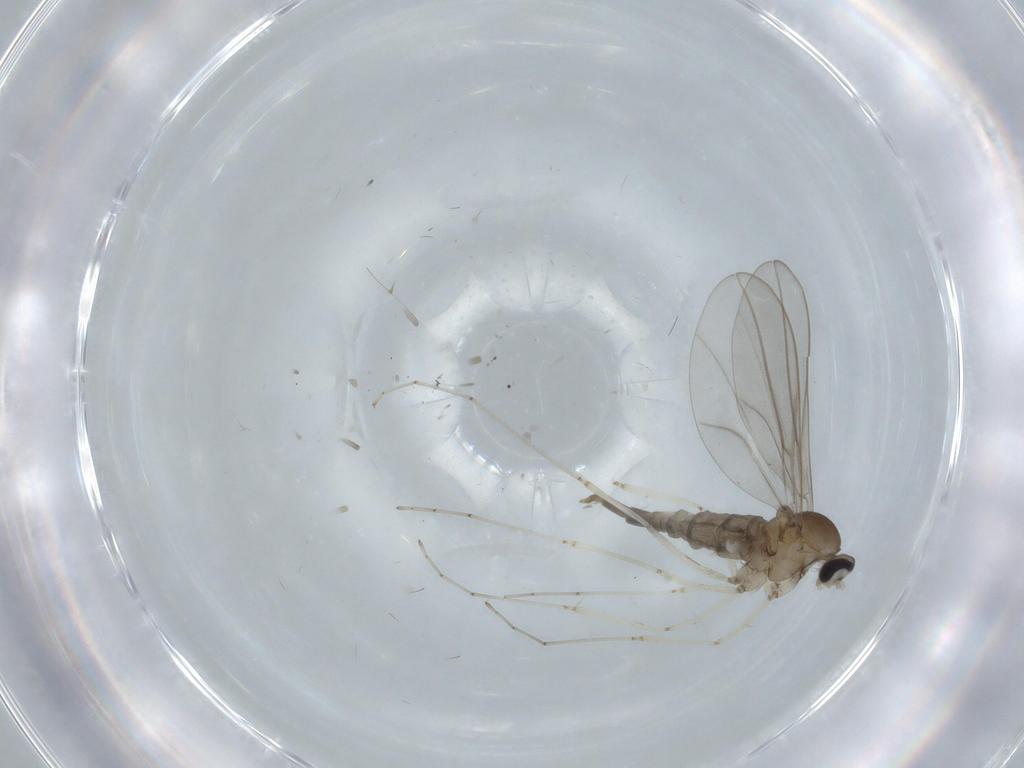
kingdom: Animalia
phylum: Arthropoda
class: Insecta
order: Diptera
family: Cecidomyiidae
